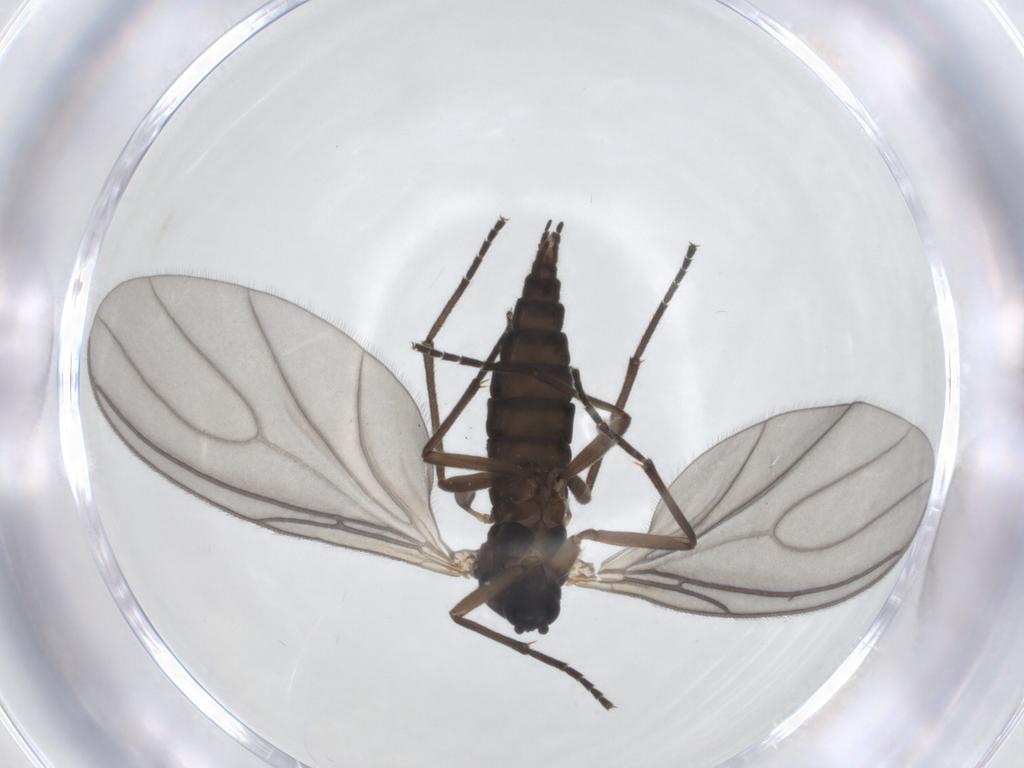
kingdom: Animalia
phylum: Arthropoda
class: Insecta
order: Diptera
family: Sciaridae
